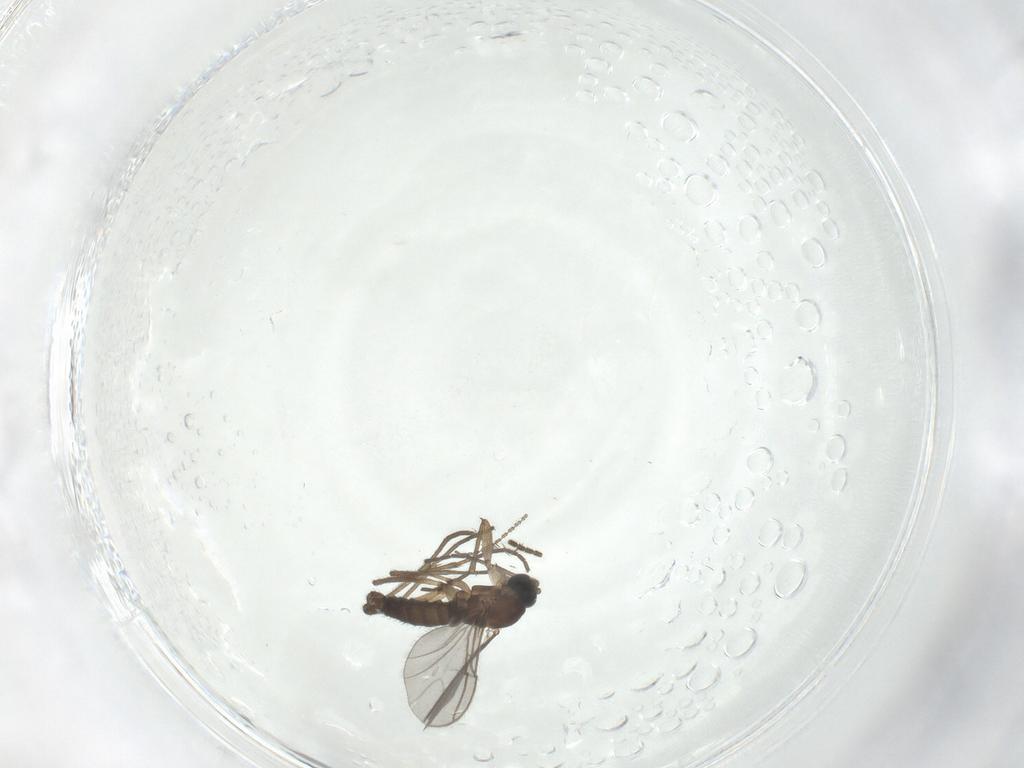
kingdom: Animalia
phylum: Arthropoda
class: Insecta
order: Diptera
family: Sciaridae
